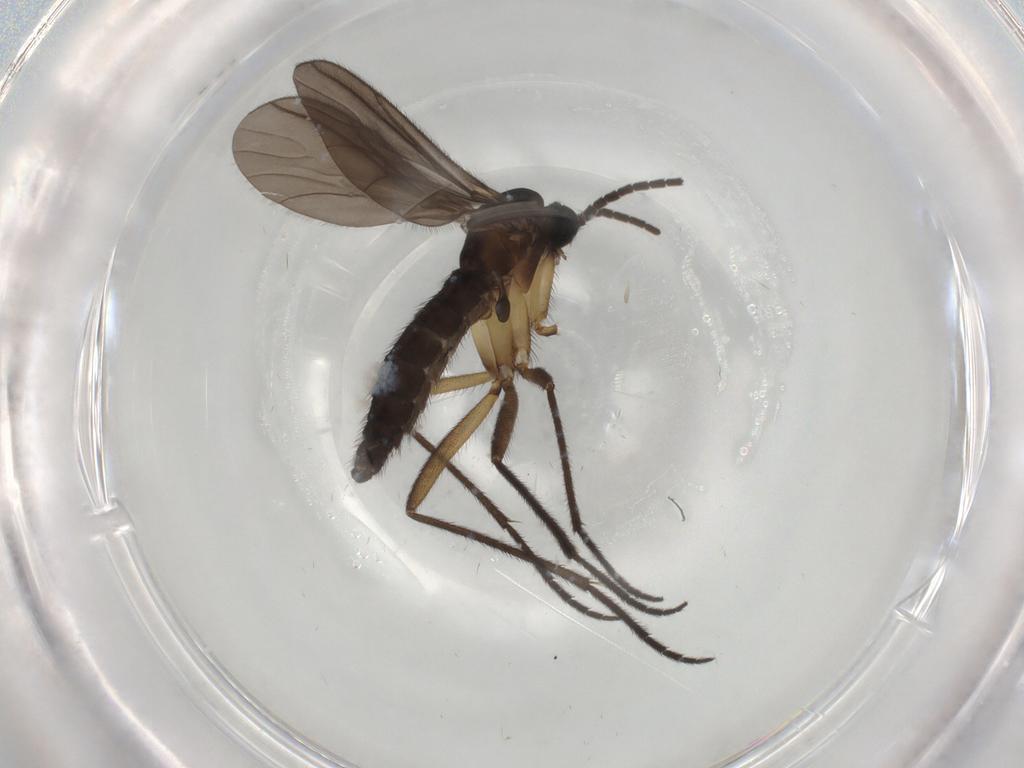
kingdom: Animalia
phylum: Arthropoda
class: Insecta
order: Diptera
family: Sciaridae
